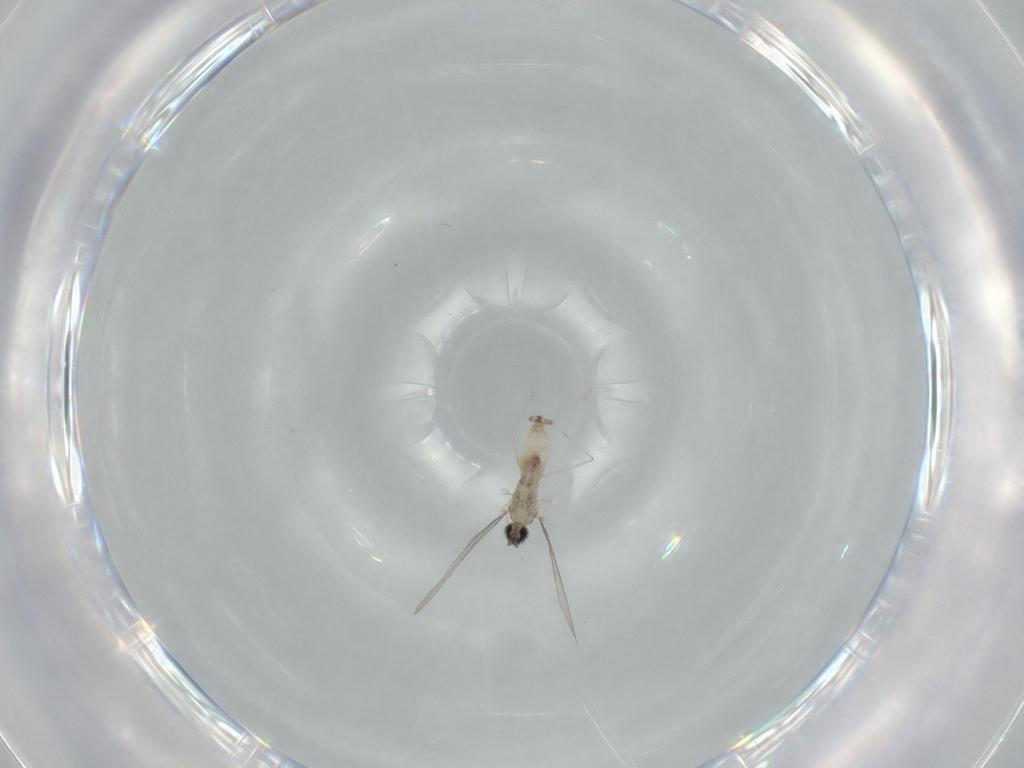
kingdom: Animalia
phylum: Arthropoda
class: Insecta
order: Diptera
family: Cecidomyiidae
